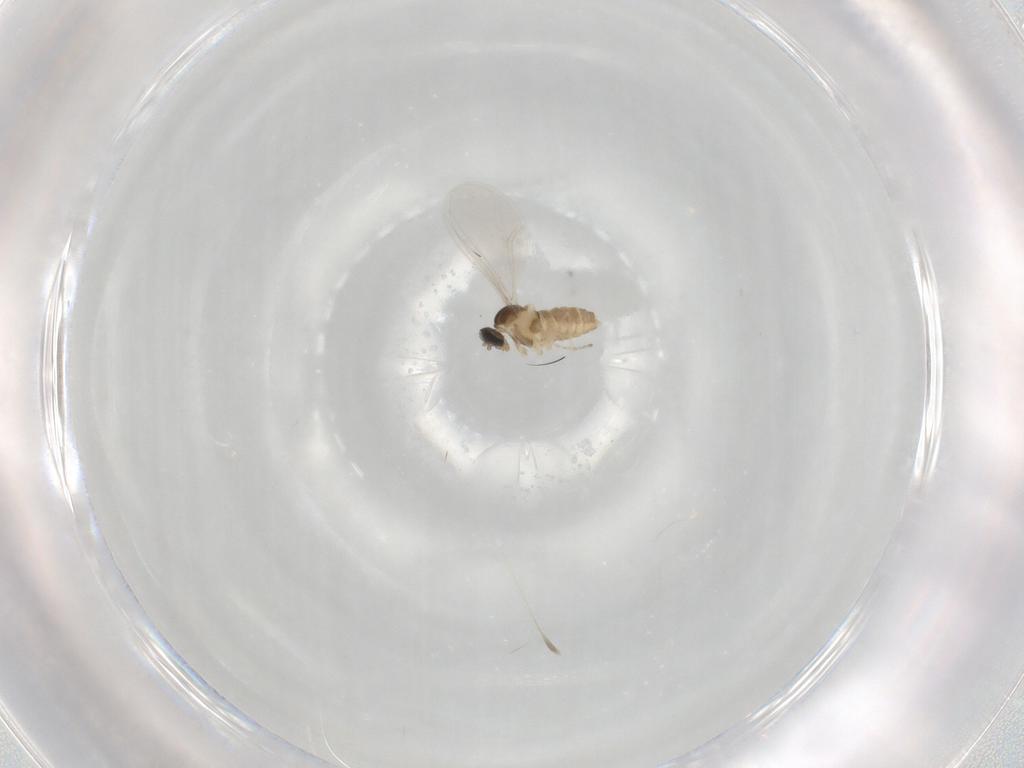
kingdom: Animalia
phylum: Arthropoda
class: Insecta
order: Diptera
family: Cecidomyiidae
